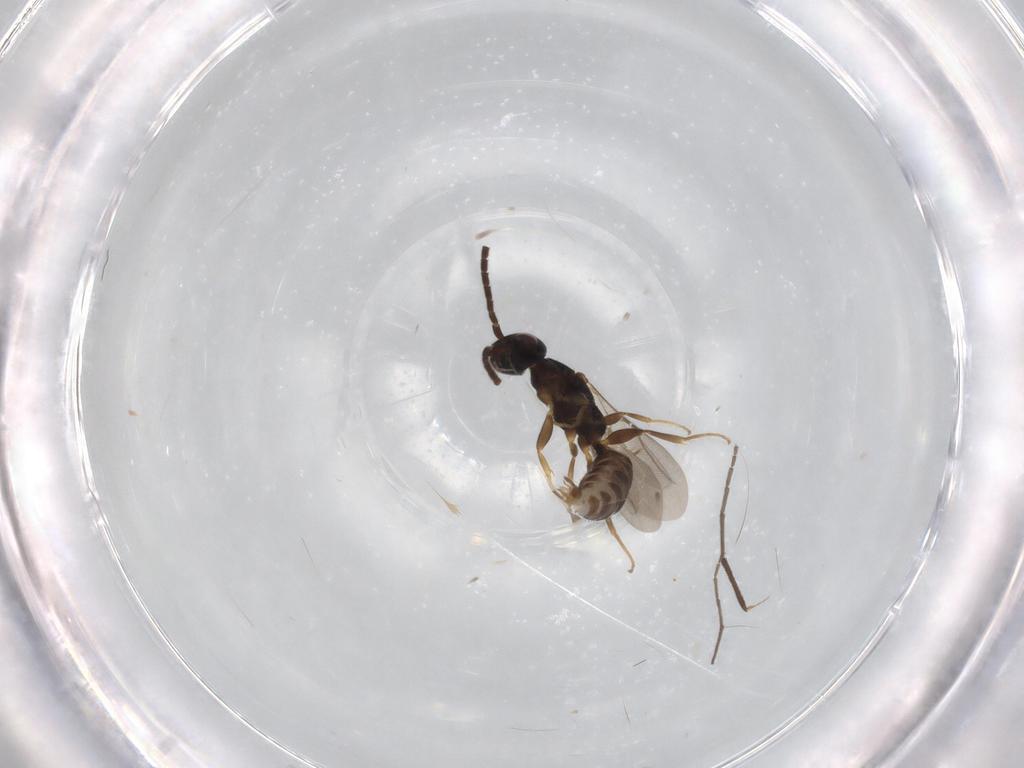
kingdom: Animalia
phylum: Arthropoda
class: Insecta
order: Hymenoptera
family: Bethylidae
